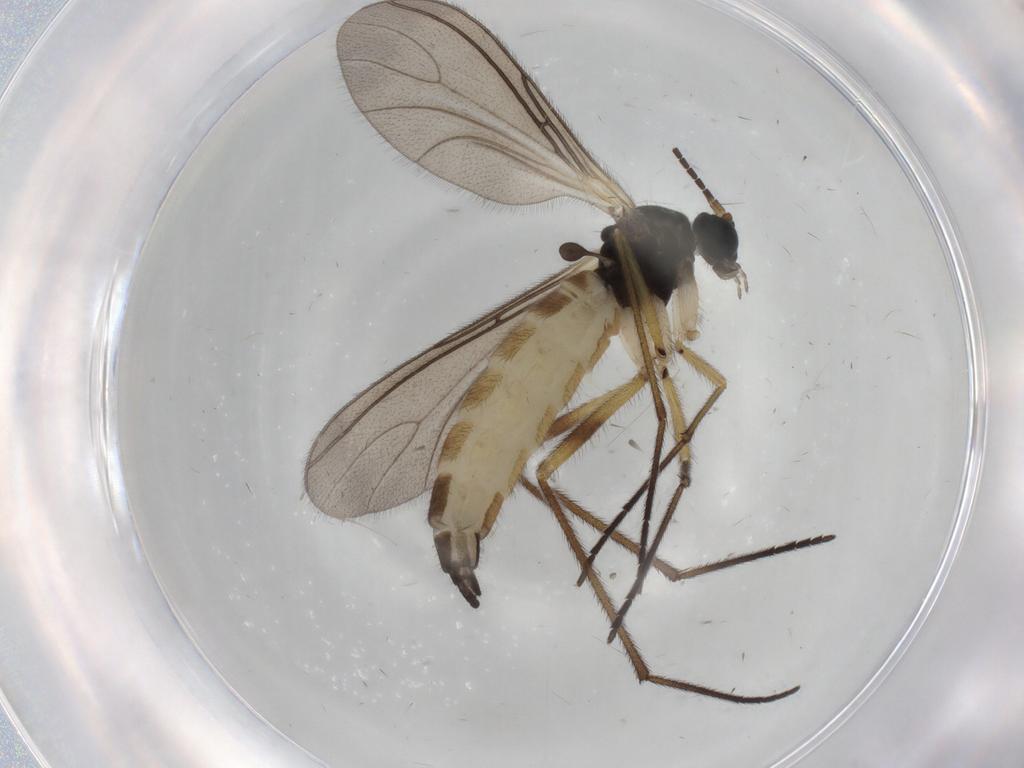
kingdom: Animalia
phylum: Arthropoda
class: Insecta
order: Diptera
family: Sciaridae
